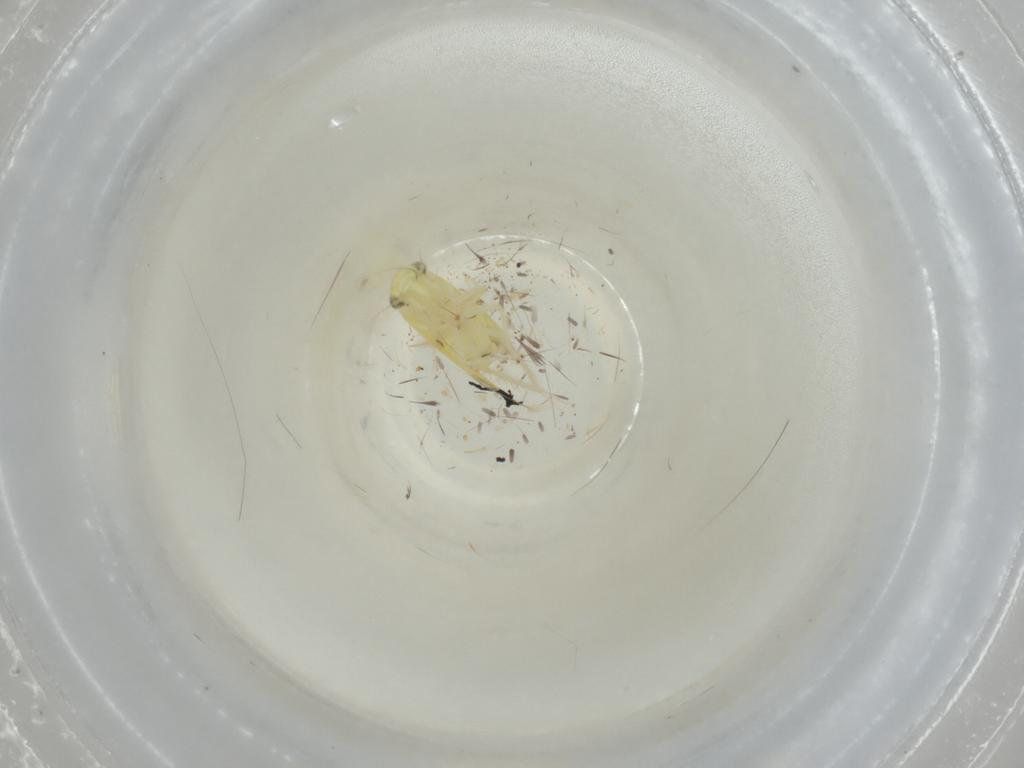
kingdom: Animalia
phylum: Arthropoda
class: Insecta
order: Hemiptera
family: Cicadellidae
